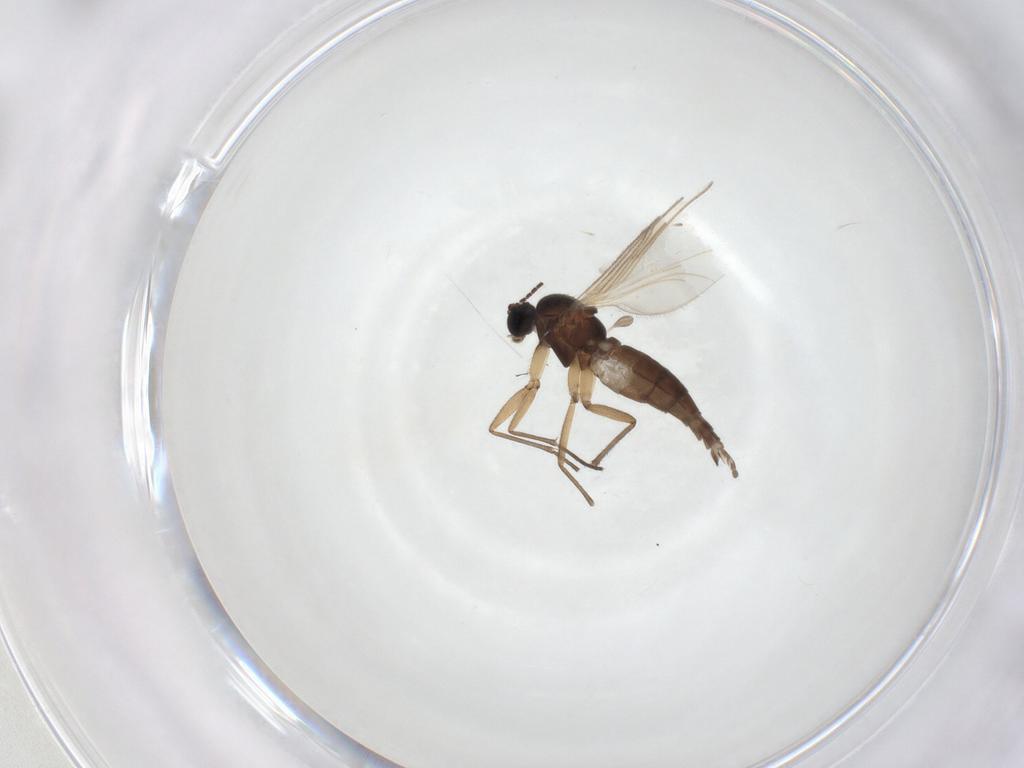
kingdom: Animalia
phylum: Arthropoda
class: Insecta
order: Diptera
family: Sciaridae
